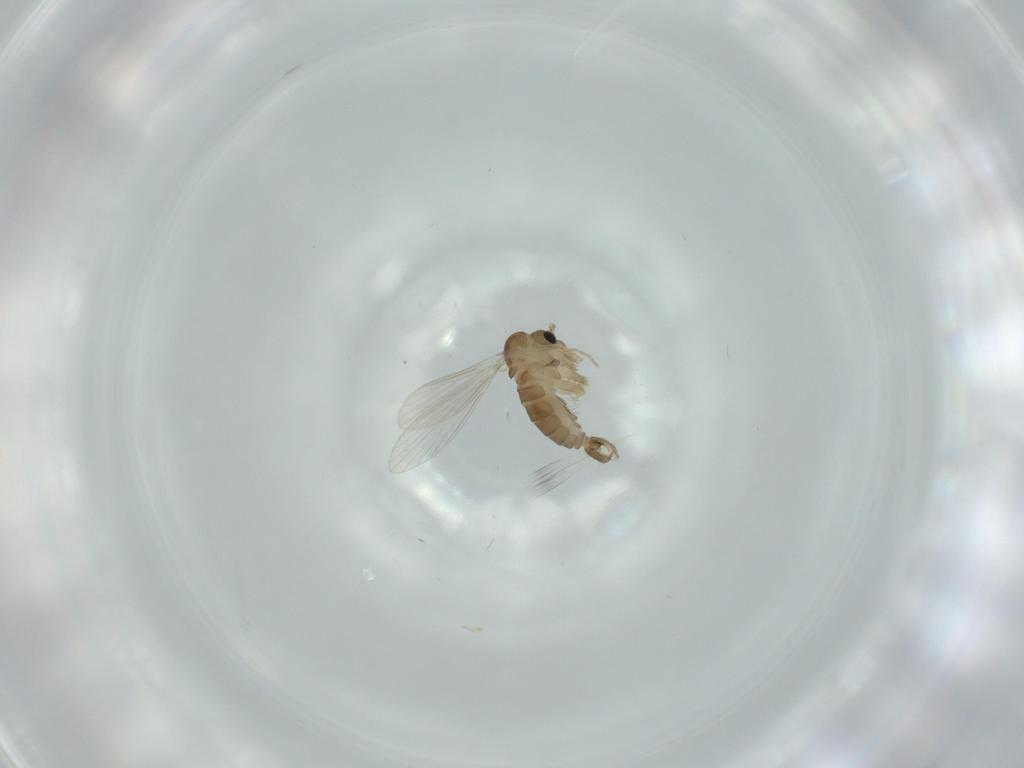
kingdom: Animalia
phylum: Arthropoda
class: Insecta
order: Diptera
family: Psychodidae
